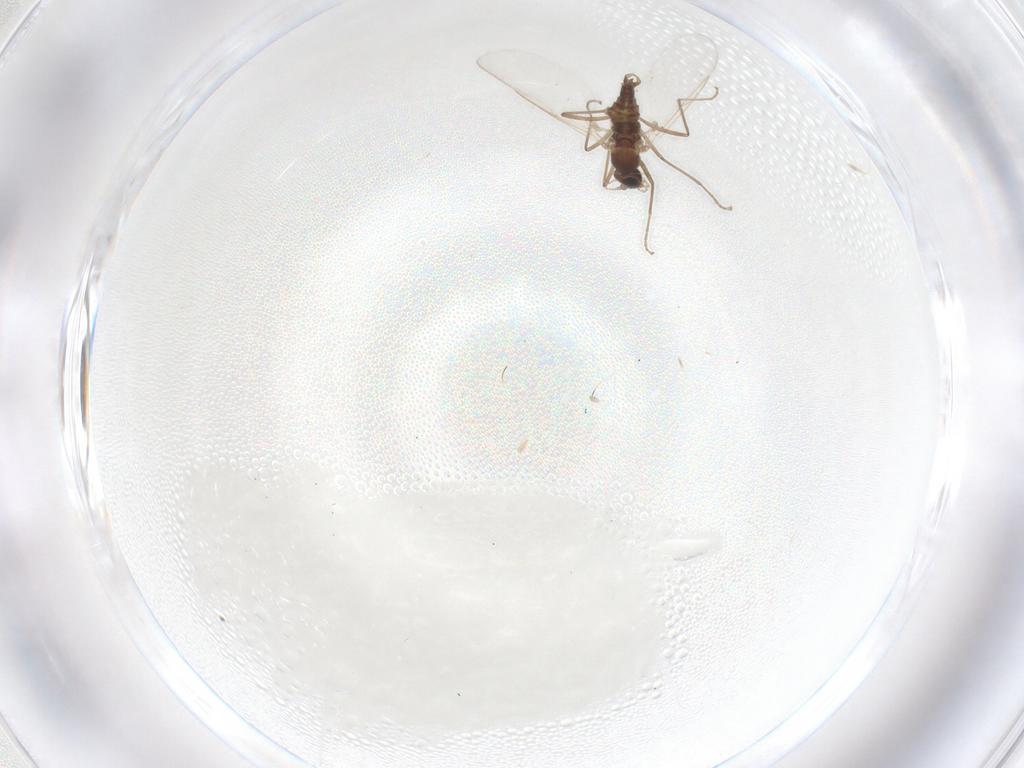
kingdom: Animalia
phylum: Arthropoda
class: Insecta
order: Diptera
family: Cecidomyiidae
